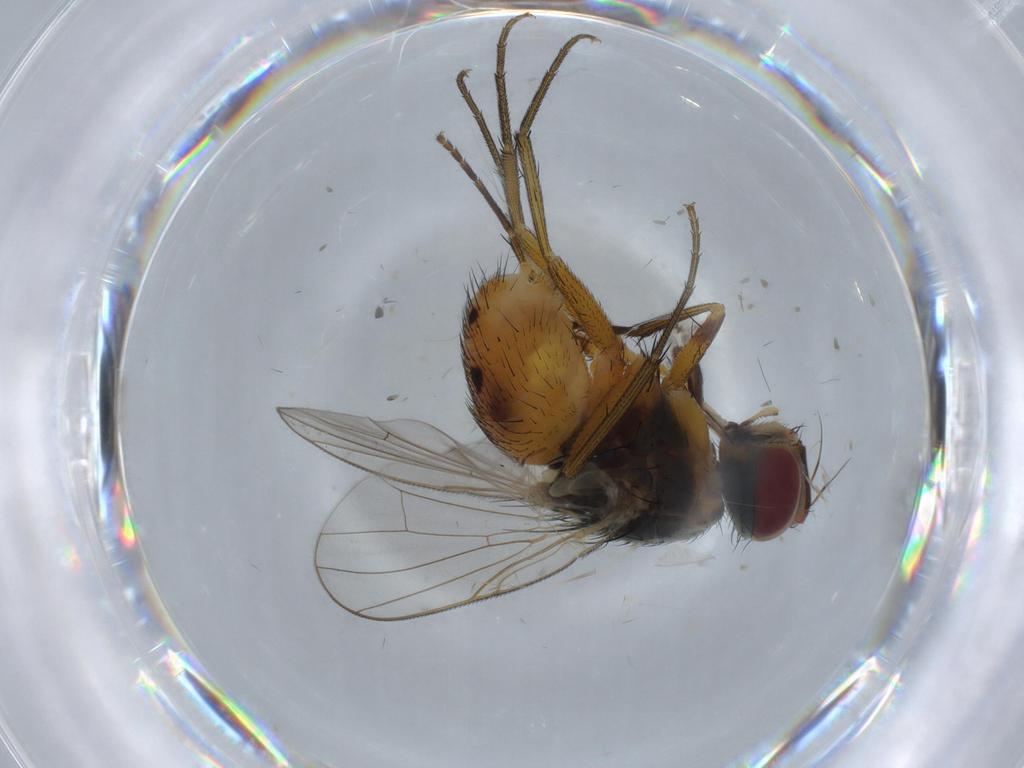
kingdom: Animalia
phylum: Arthropoda
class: Insecta
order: Diptera
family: Muscidae
